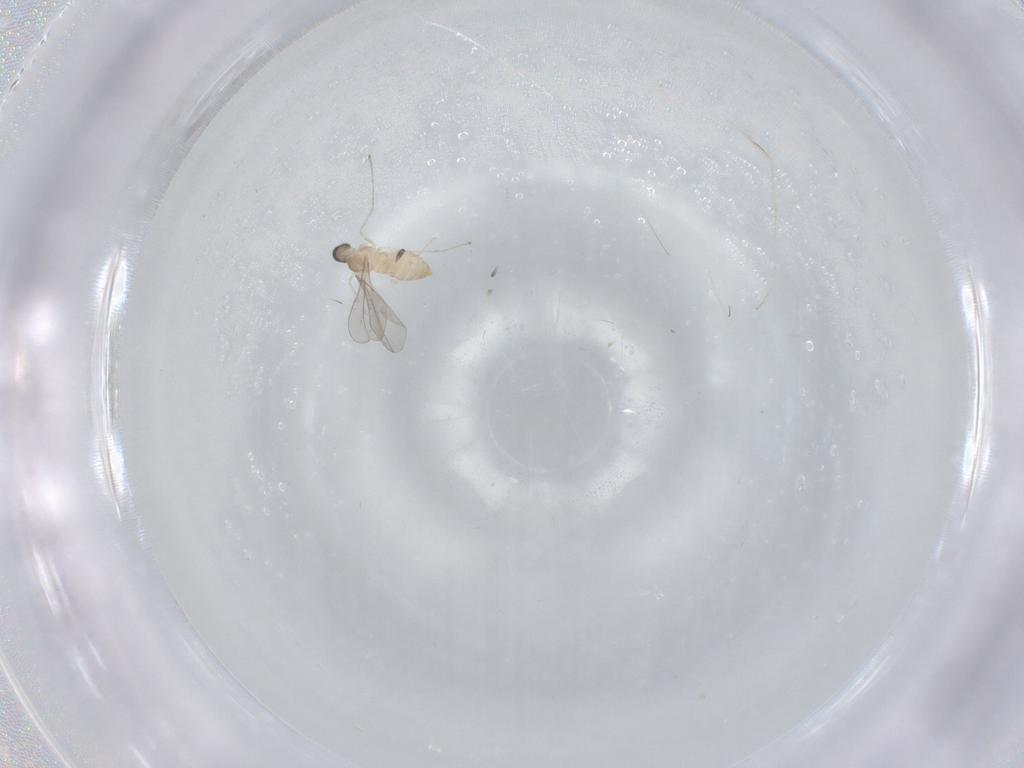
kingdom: Animalia
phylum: Arthropoda
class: Insecta
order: Diptera
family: Cecidomyiidae
